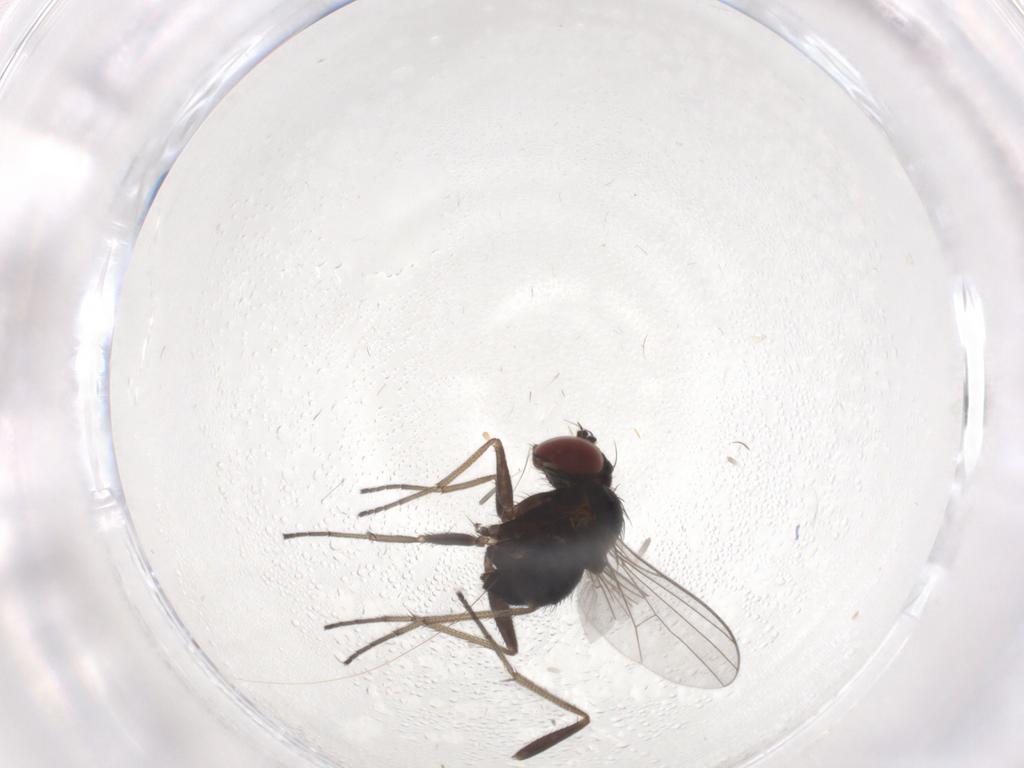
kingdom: Animalia
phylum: Arthropoda
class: Insecta
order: Diptera
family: Dolichopodidae
